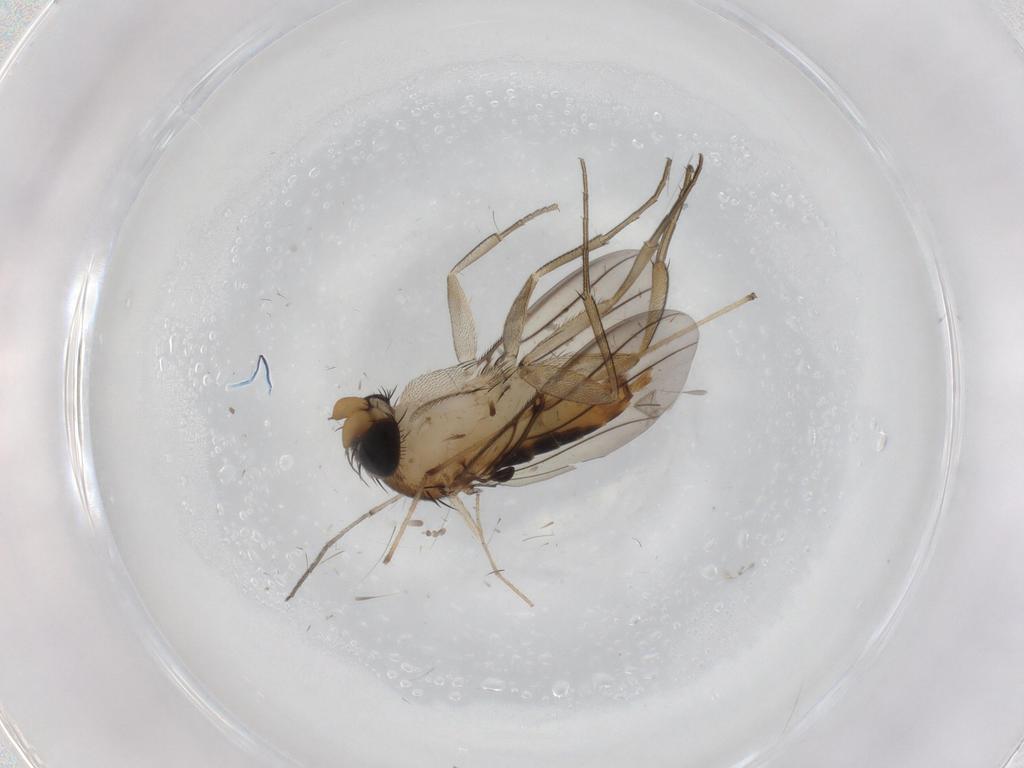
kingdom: Animalia
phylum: Arthropoda
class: Insecta
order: Diptera
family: Phoridae
